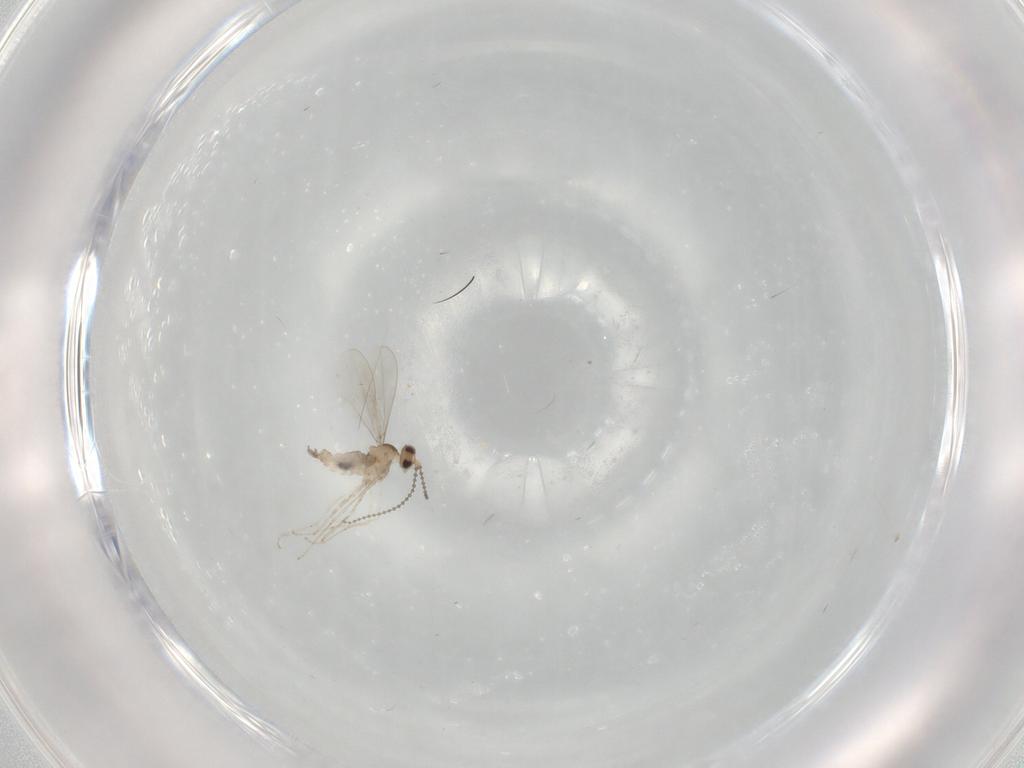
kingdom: Animalia
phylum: Arthropoda
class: Insecta
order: Diptera
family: Cecidomyiidae
